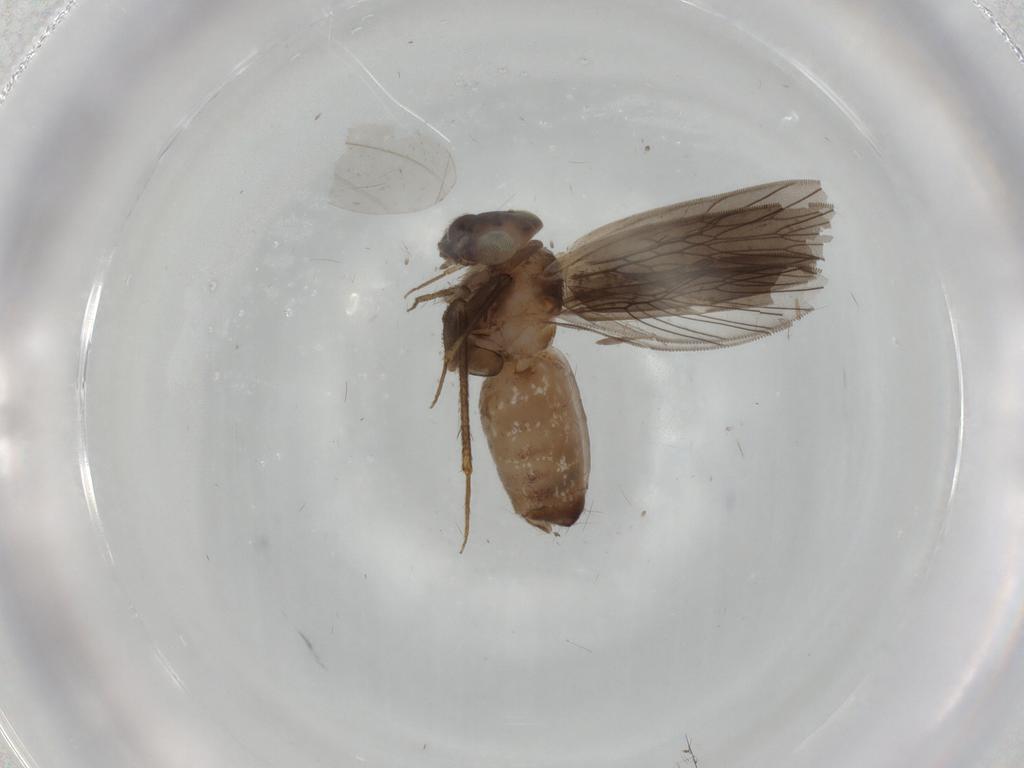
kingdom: Animalia
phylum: Arthropoda
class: Insecta
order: Psocodea
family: Lepidopsocidae
